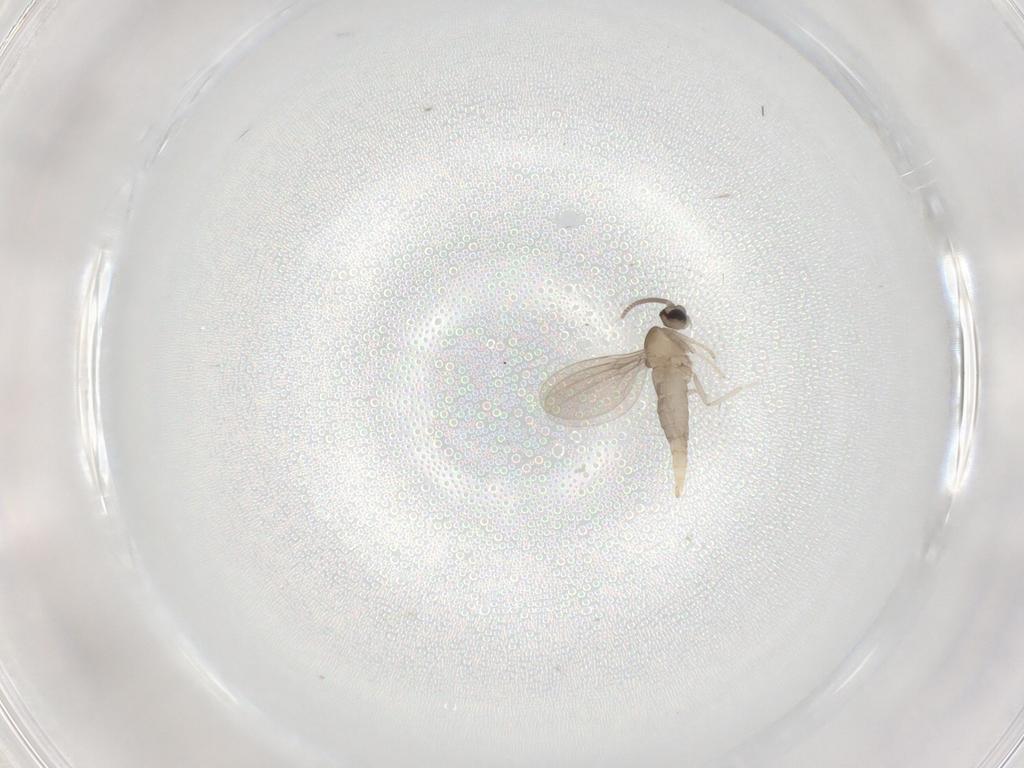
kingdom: Animalia
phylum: Arthropoda
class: Insecta
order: Diptera
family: Cecidomyiidae
